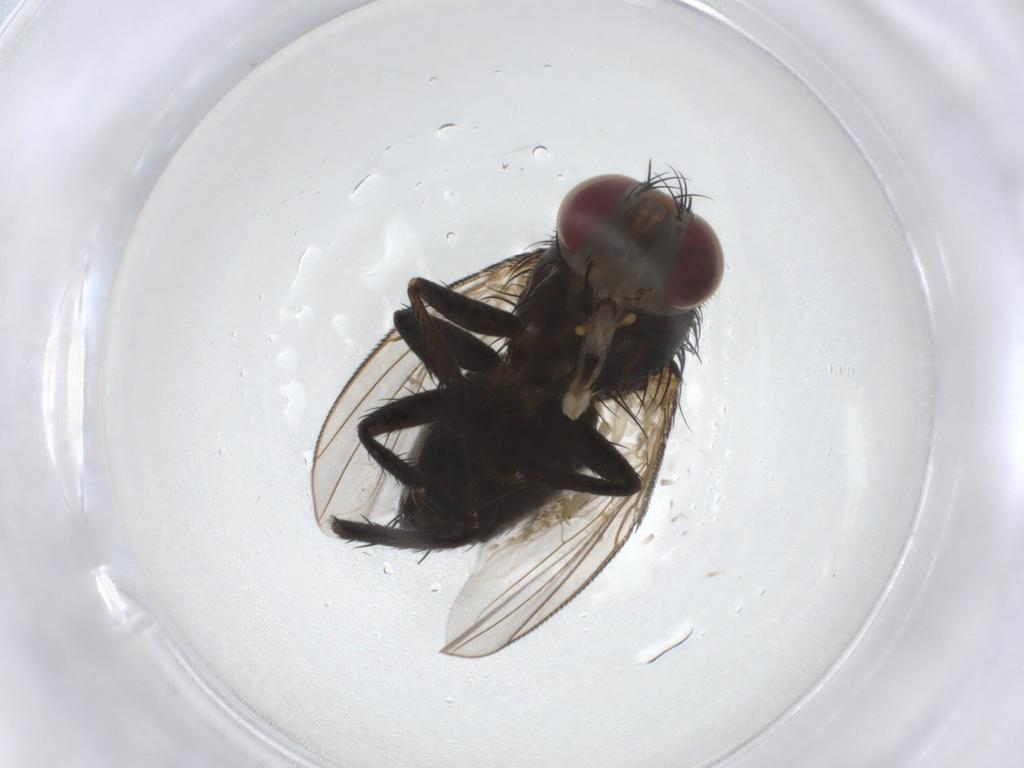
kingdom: Animalia
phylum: Arthropoda
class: Insecta
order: Diptera
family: Tachinidae
